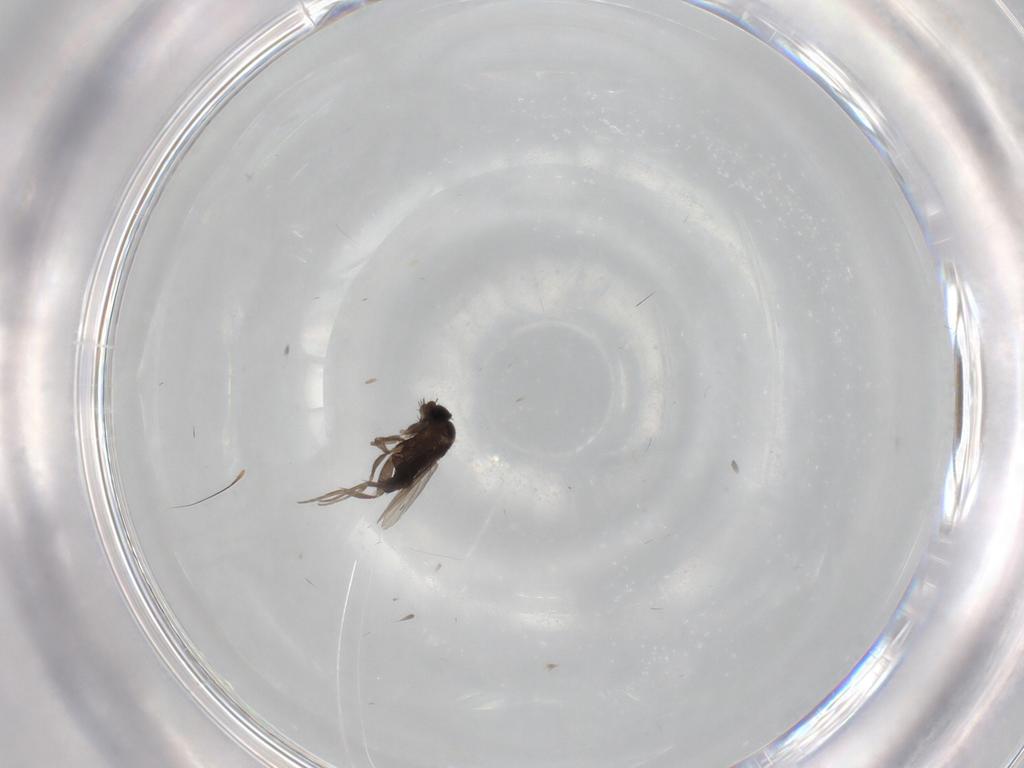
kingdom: Animalia
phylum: Arthropoda
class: Insecta
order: Diptera
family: Phoridae
